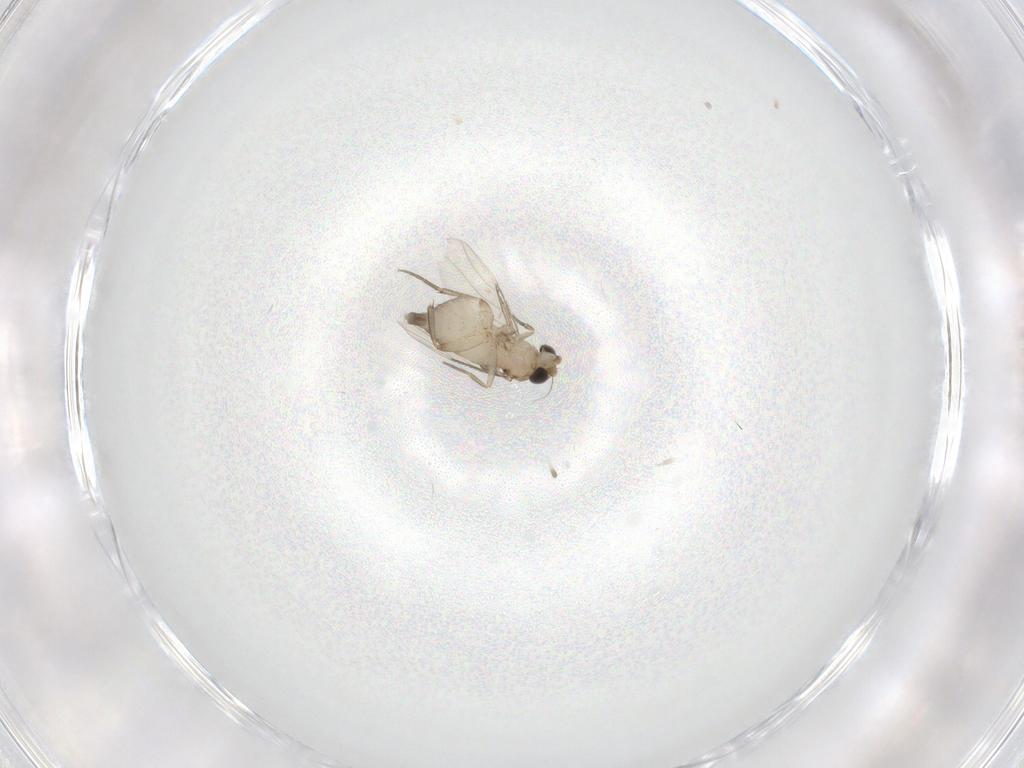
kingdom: Animalia
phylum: Arthropoda
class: Insecta
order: Diptera
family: Phoridae
